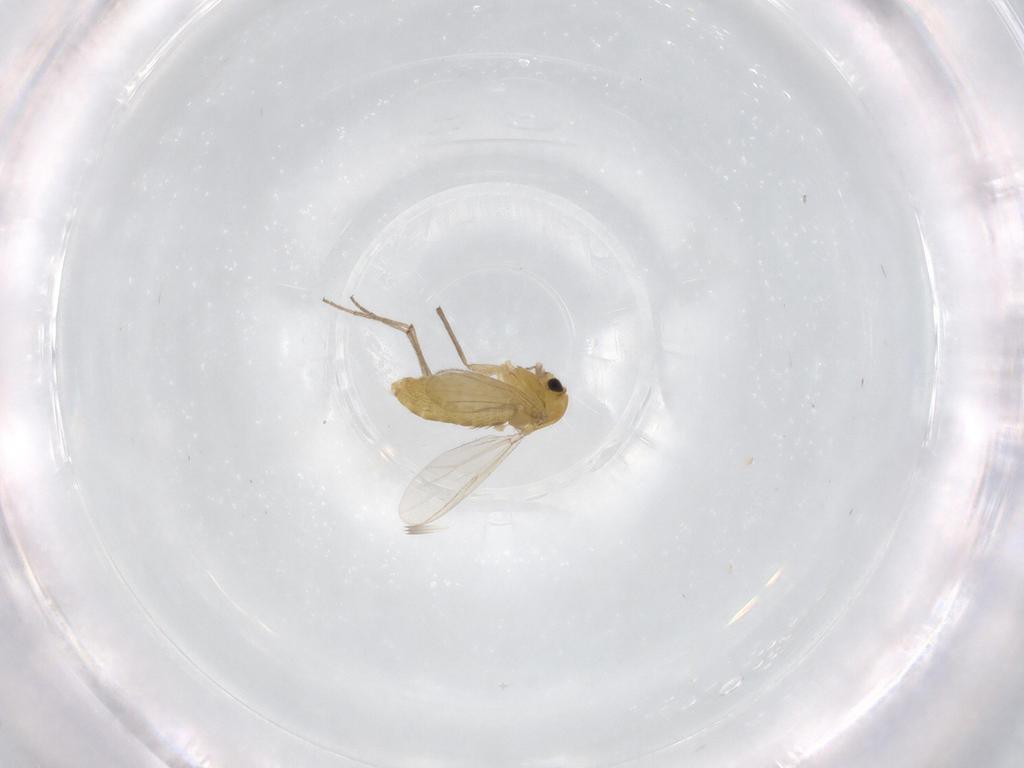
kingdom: Animalia
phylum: Arthropoda
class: Insecta
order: Diptera
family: Chironomidae
